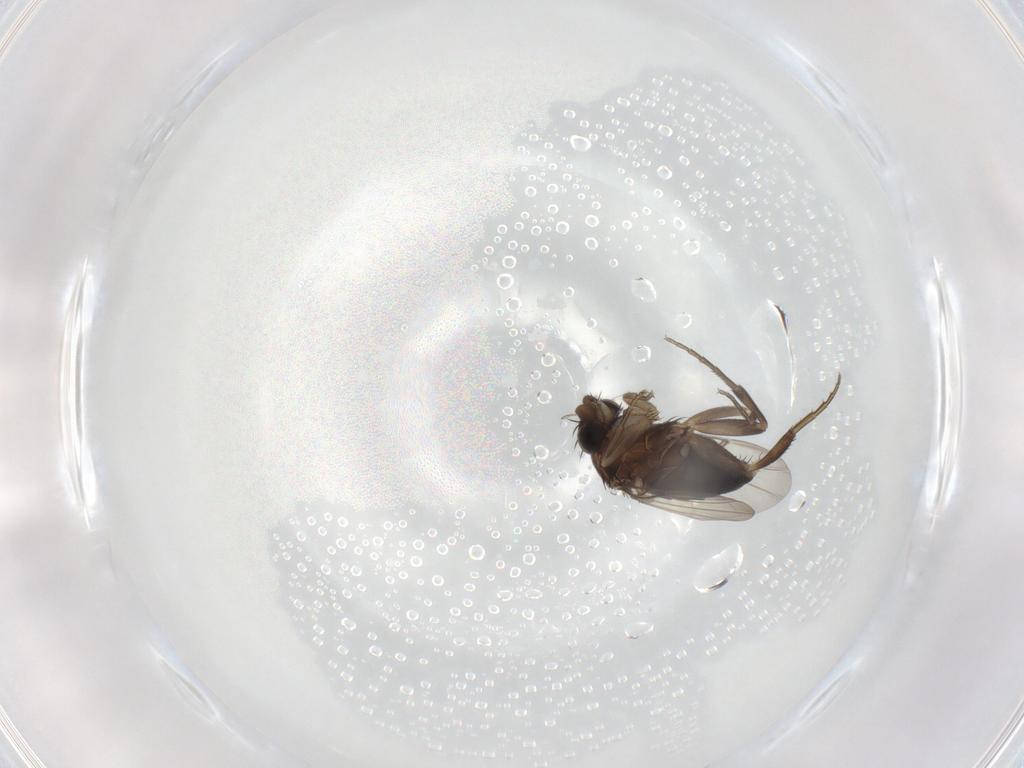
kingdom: Animalia
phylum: Arthropoda
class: Insecta
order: Diptera
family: Phoridae
